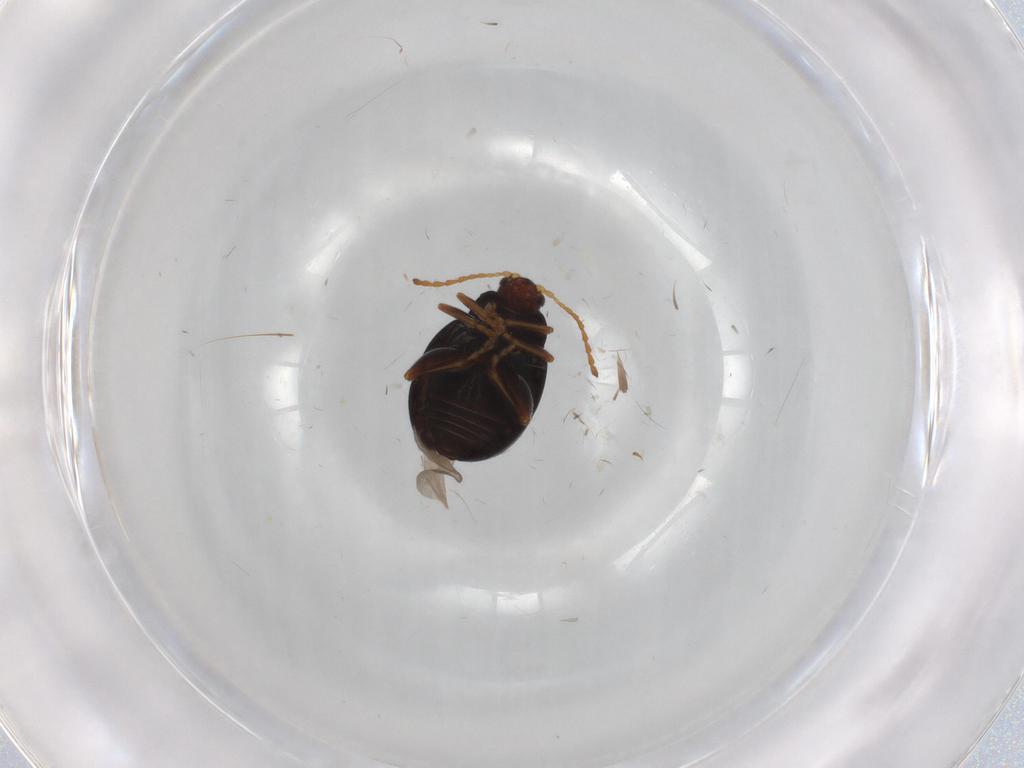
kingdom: Animalia
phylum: Arthropoda
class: Insecta
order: Coleoptera
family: Chrysomelidae
